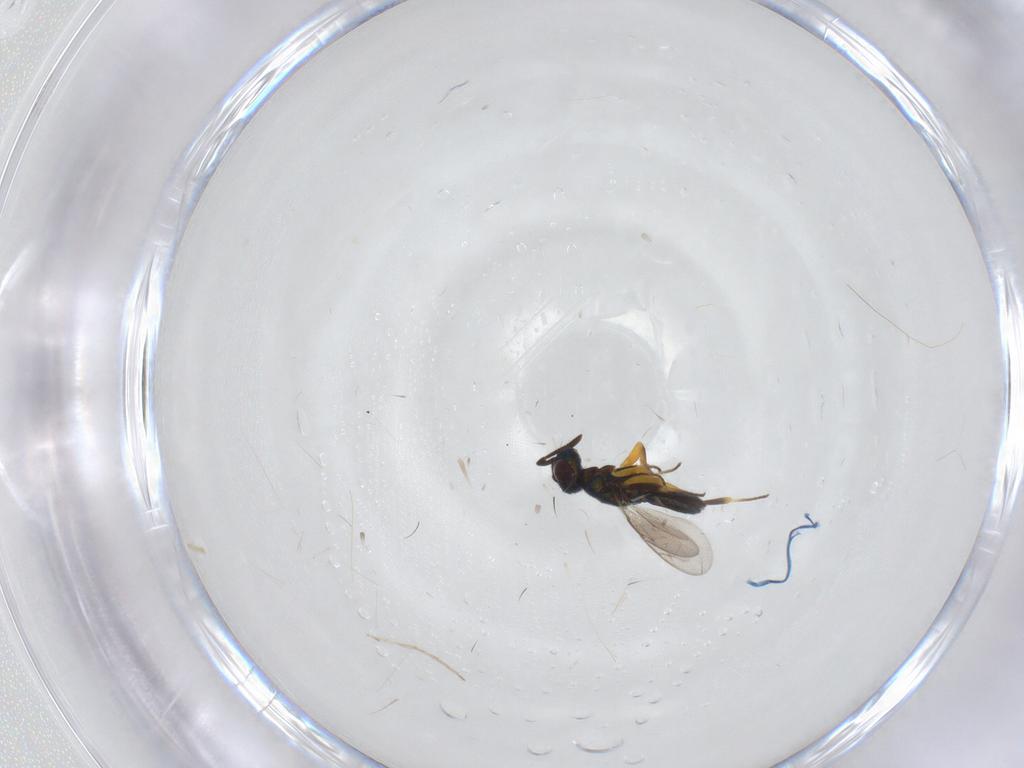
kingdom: Animalia
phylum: Arthropoda
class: Insecta
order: Hymenoptera
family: Eupelmidae
